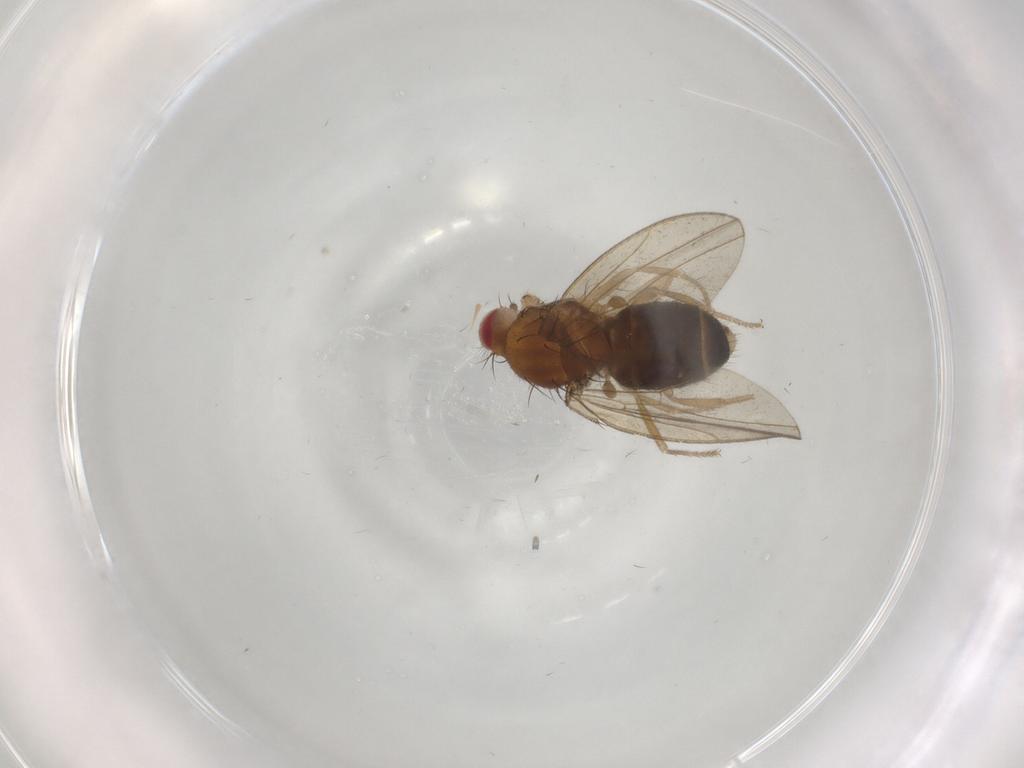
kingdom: Animalia
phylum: Arthropoda
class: Insecta
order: Diptera
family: Drosophilidae
